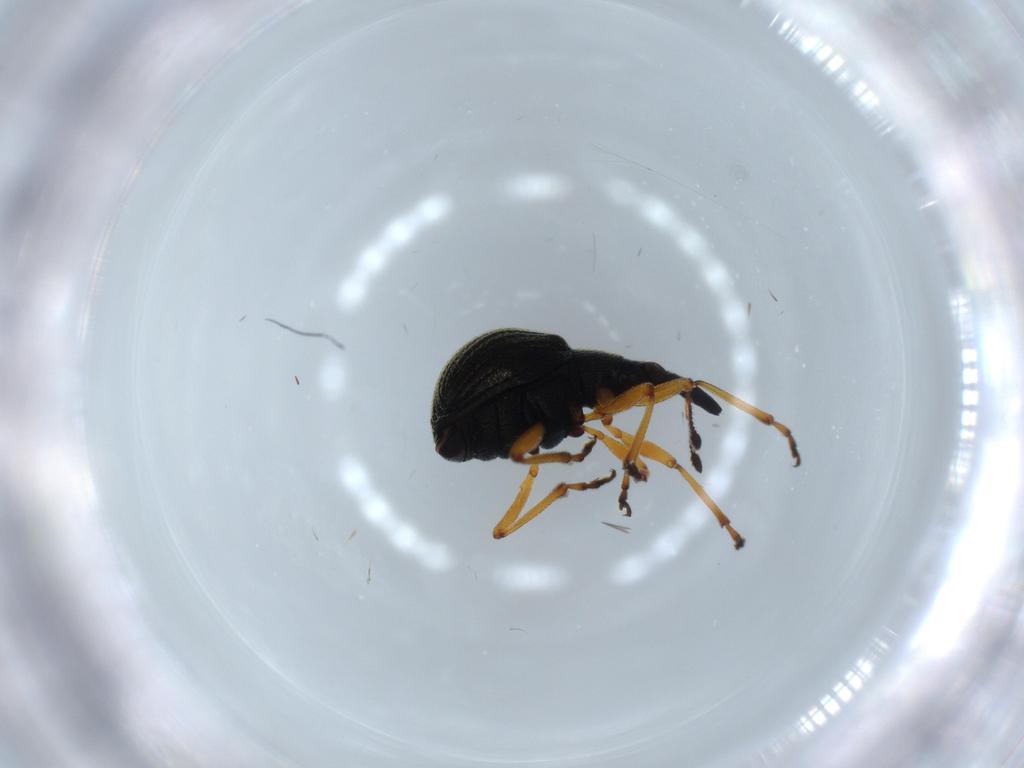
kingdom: Animalia
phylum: Arthropoda
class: Insecta
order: Coleoptera
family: Brentidae
